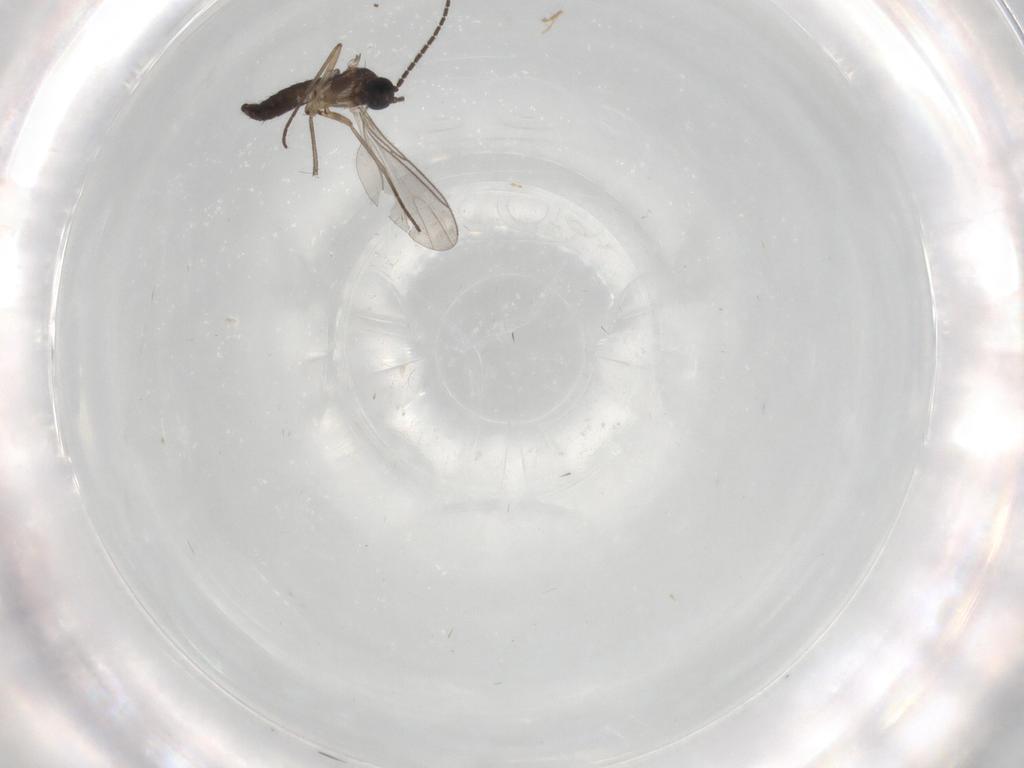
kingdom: Animalia
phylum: Arthropoda
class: Insecta
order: Diptera
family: Sciaridae
